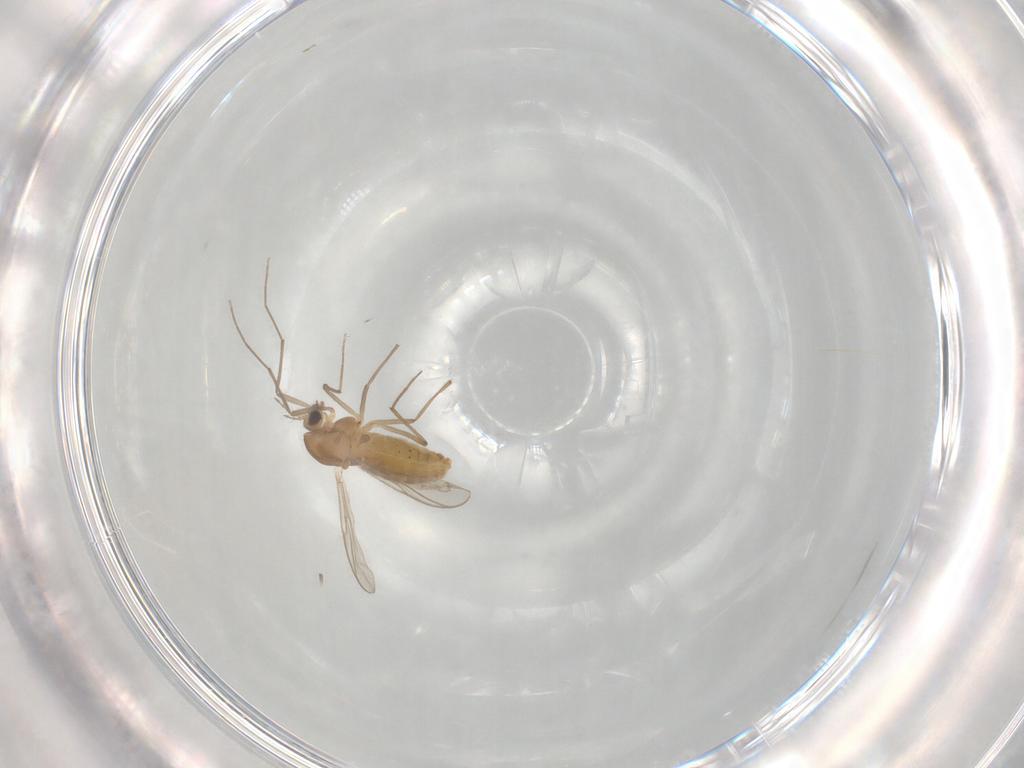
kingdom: Animalia
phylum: Arthropoda
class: Insecta
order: Diptera
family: Chironomidae
